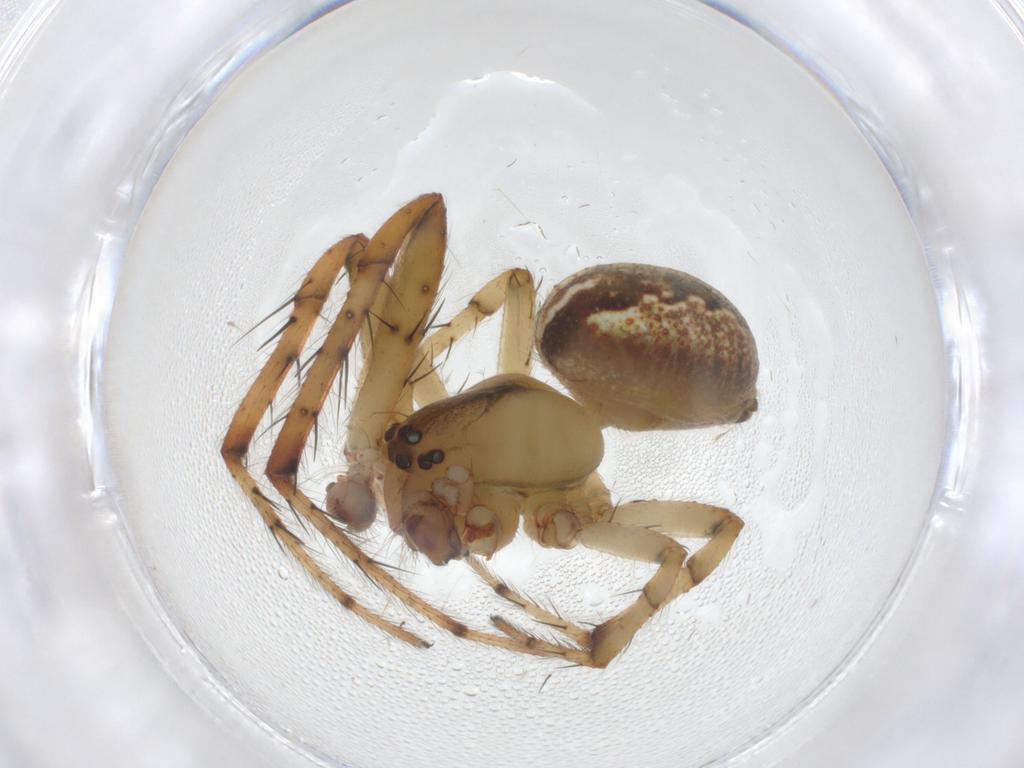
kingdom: Animalia
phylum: Arthropoda
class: Arachnida
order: Araneae
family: Araneidae
